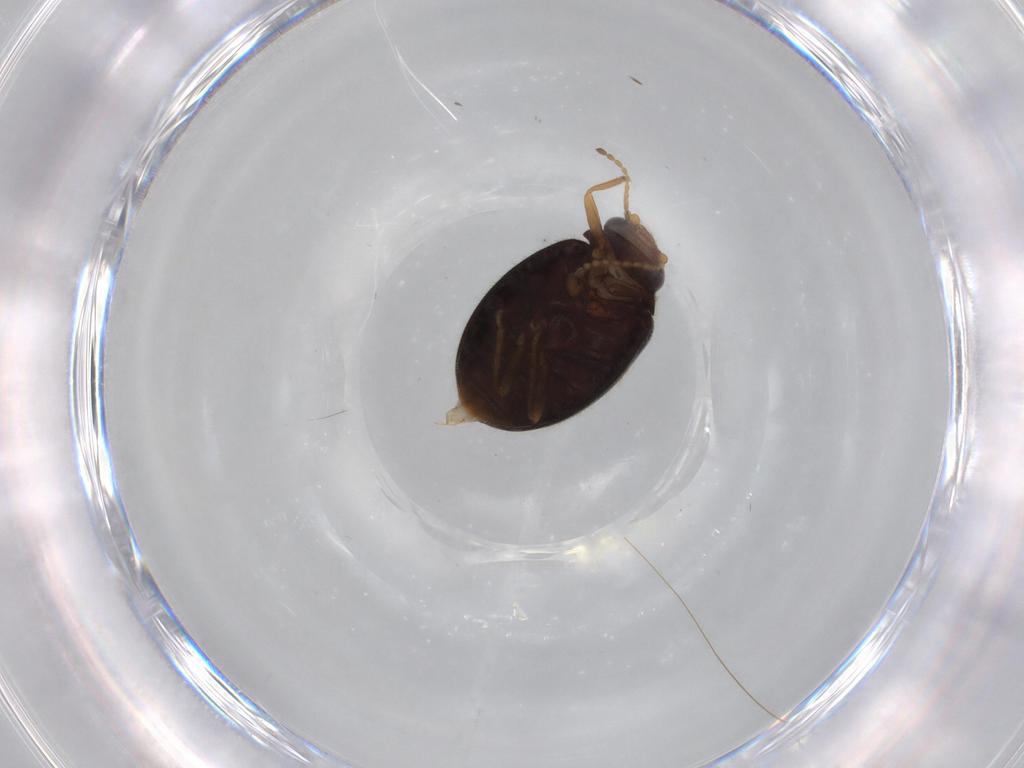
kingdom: Animalia
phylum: Arthropoda
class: Insecta
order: Coleoptera
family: Scirtidae
